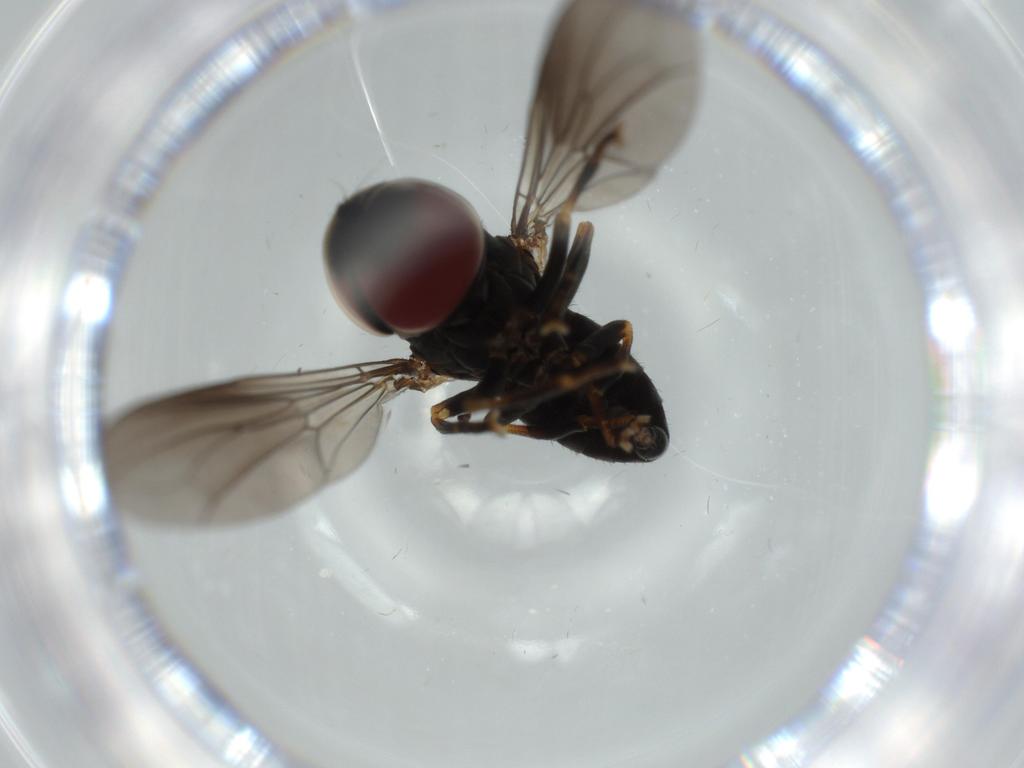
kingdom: Animalia
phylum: Arthropoda
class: Insecta
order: Diptera
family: Pipunculidae
